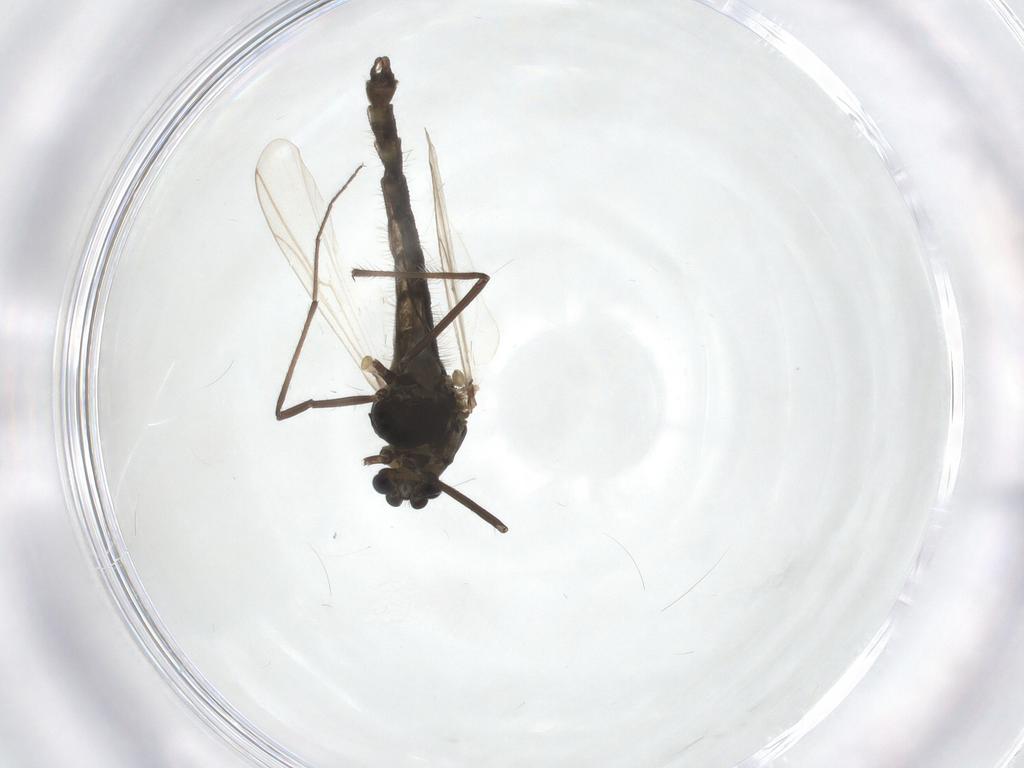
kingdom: Animalia
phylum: Arthropoda
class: Insecta
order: Diptera
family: Chironomidae
